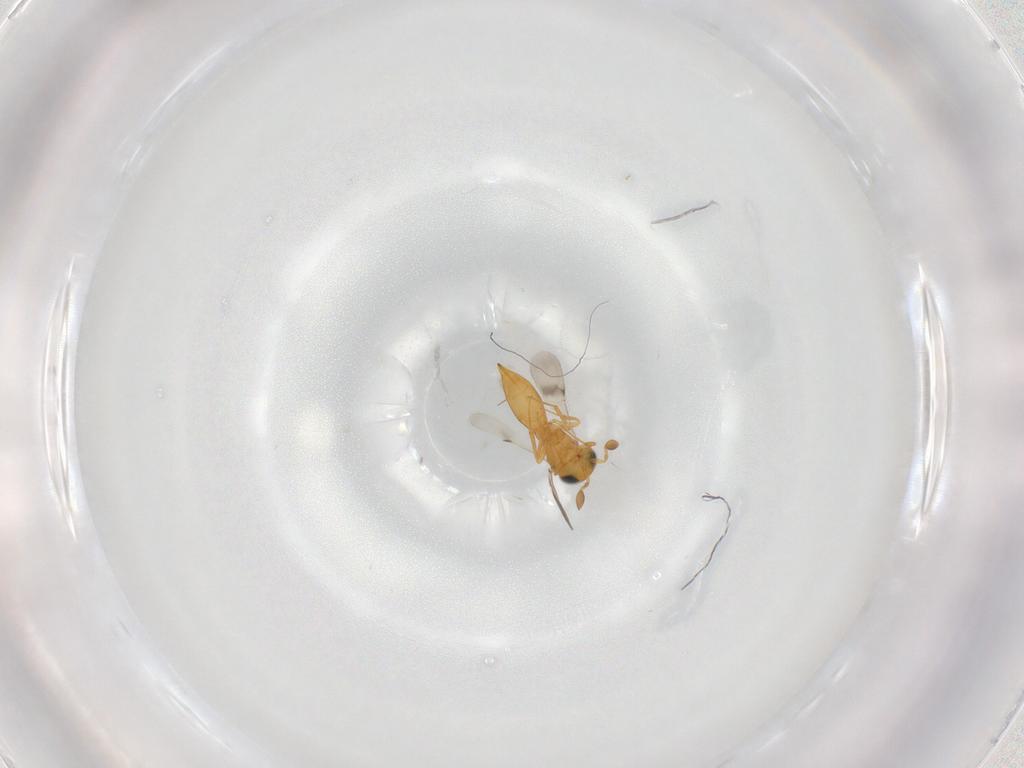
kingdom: Animalia
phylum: Arthropoda
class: Insecta
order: Hymenoptera
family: Scelionidae
